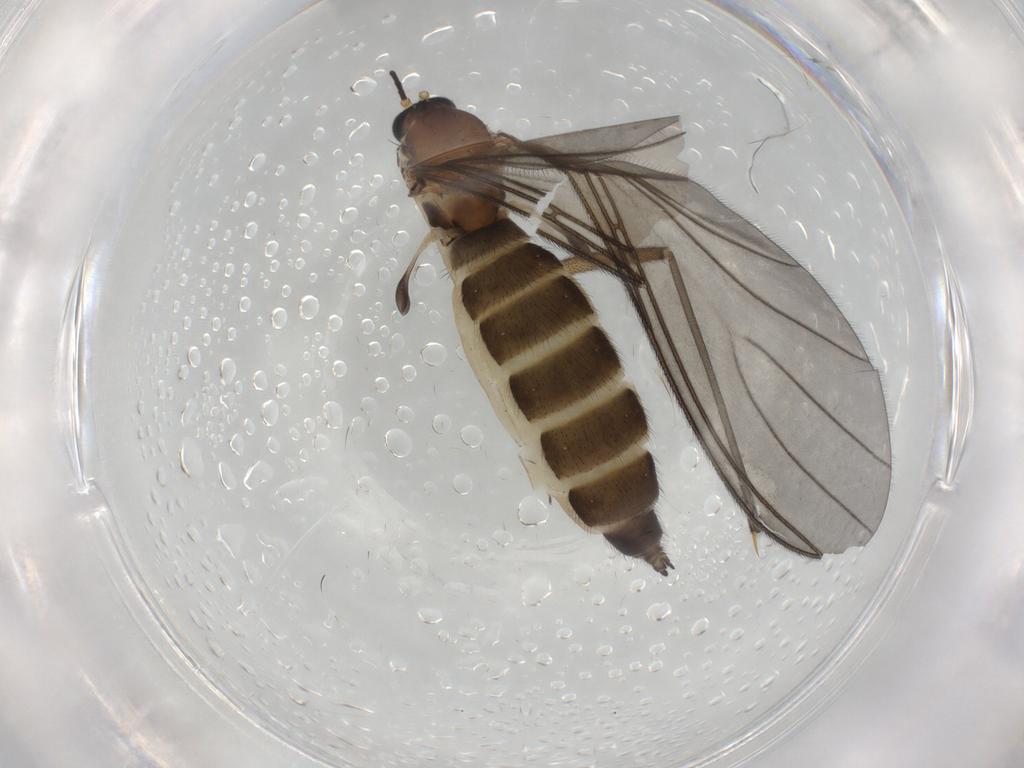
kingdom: Animalia
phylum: Arthropoda
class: Insecta
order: Diptera
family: Sciaridae
